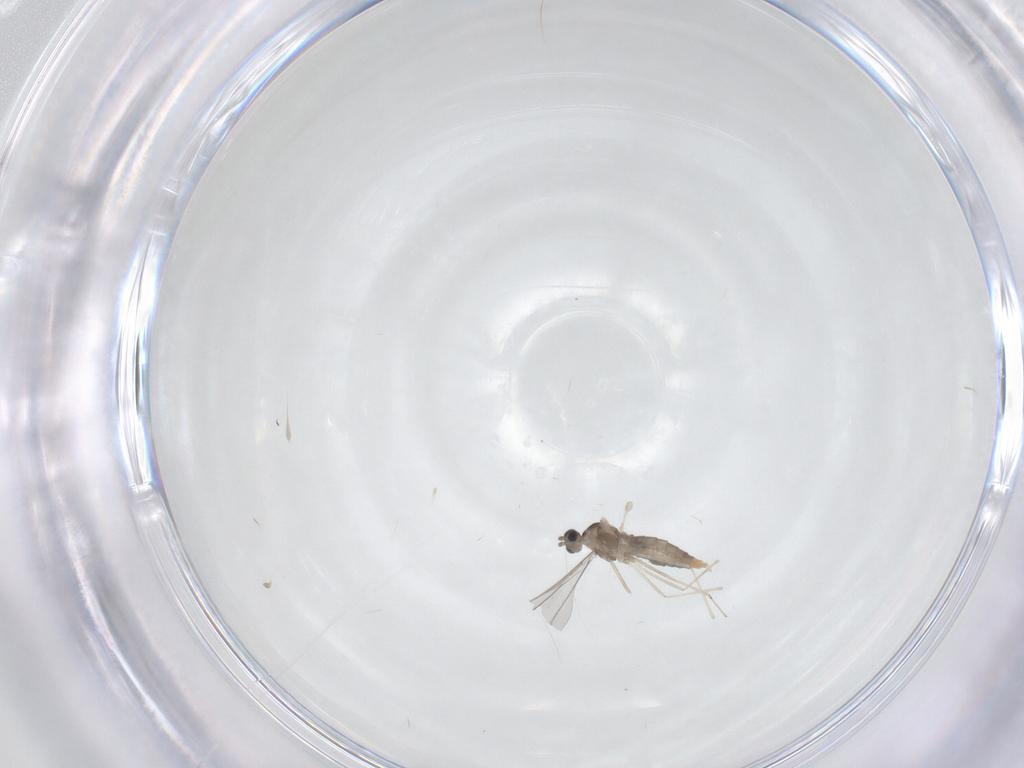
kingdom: Animalia
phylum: Arthropoda
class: Insecta
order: Diptera
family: Cecidomyiidae
